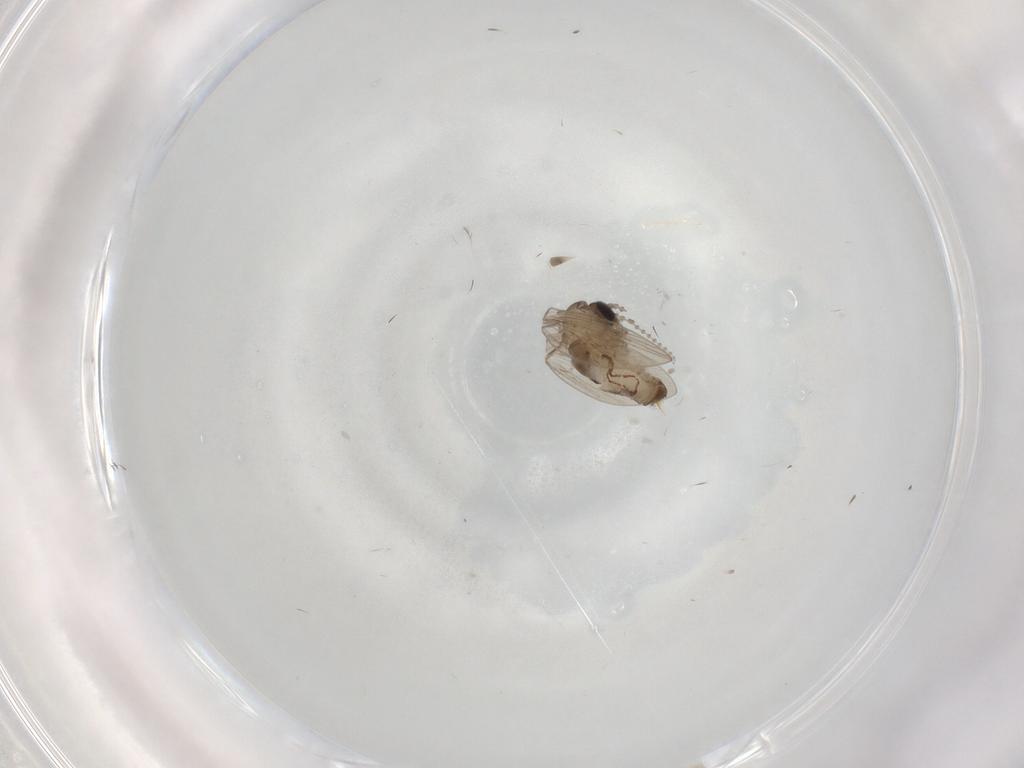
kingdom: Animalia
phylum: Arthropoda
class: Insecta
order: Diptera
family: Psychodidae
